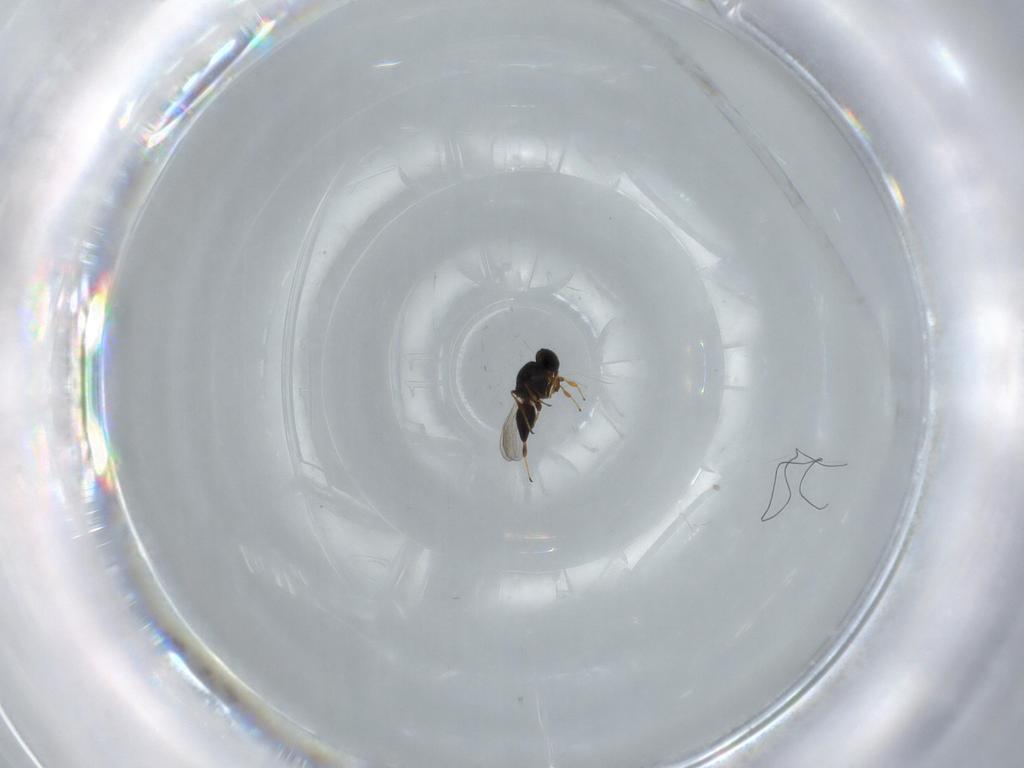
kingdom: Animalia
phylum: Arthropoda
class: Insecta
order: Hymenoptera
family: Platygastridae
